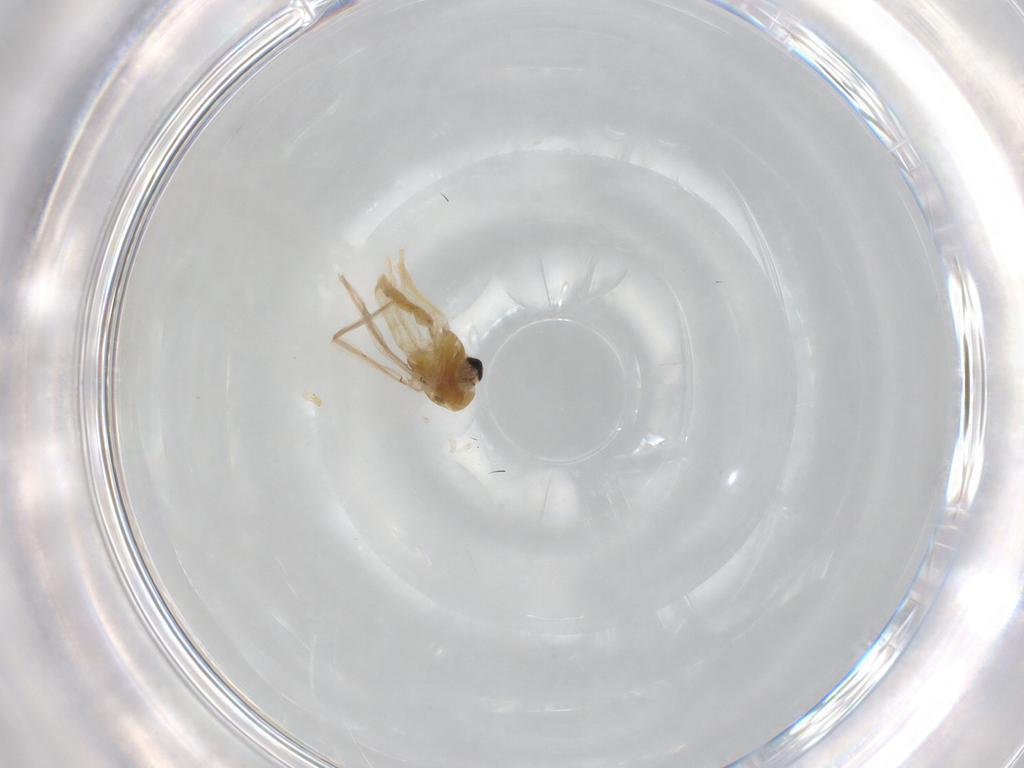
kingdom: Animalia
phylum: Arthropoda
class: Insecta
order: Diptera
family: Chironomidae
